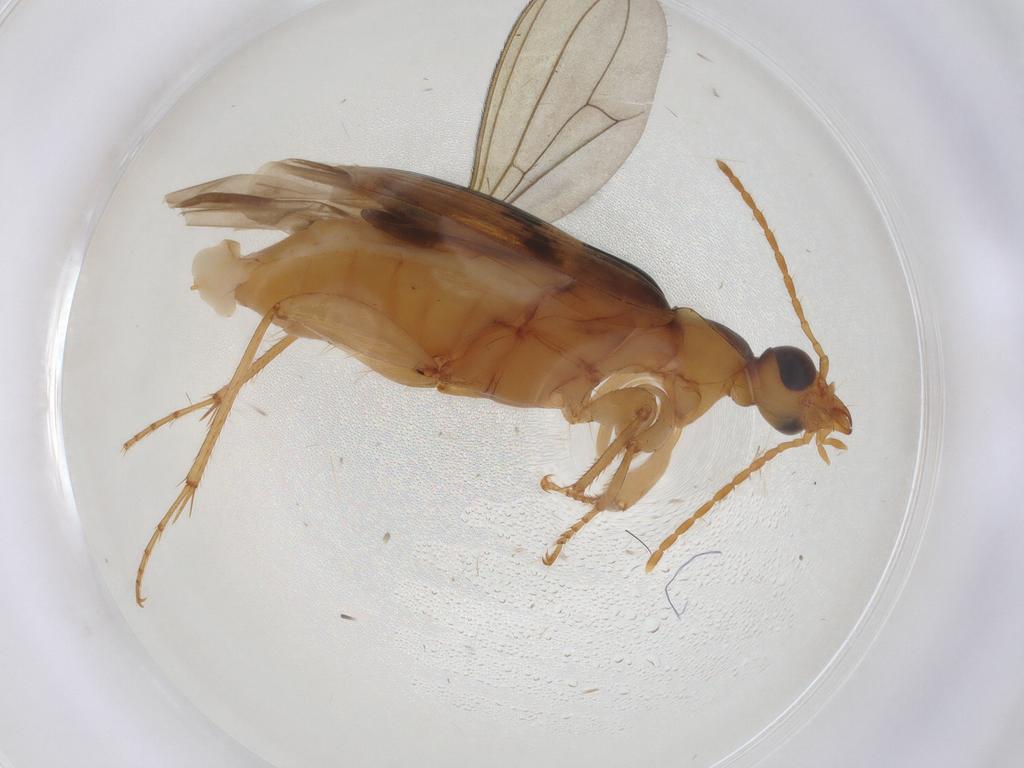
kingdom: Animalia
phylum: Arthropoda
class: Insecta
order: Coleoptera
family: Carabidae
